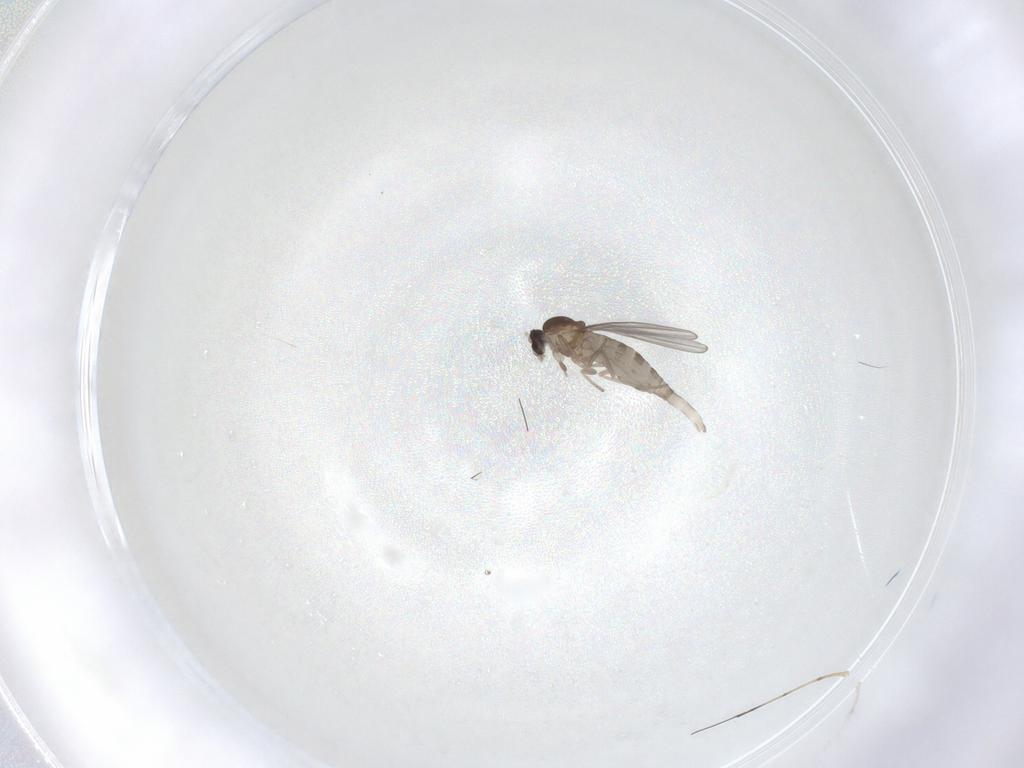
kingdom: Animalia
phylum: Arthropoda
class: Insecta
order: Diptera
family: Cecidomyiidae
